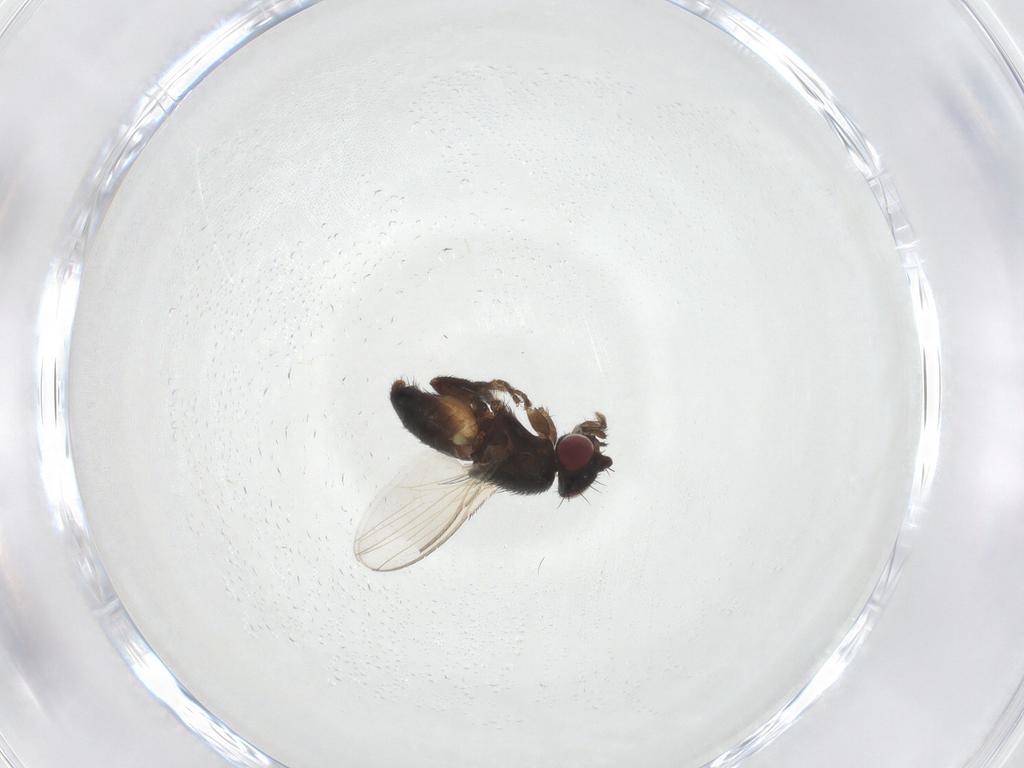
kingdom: Animalia
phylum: Arthropoda
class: Insecta
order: Diptera
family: Milichiidae
